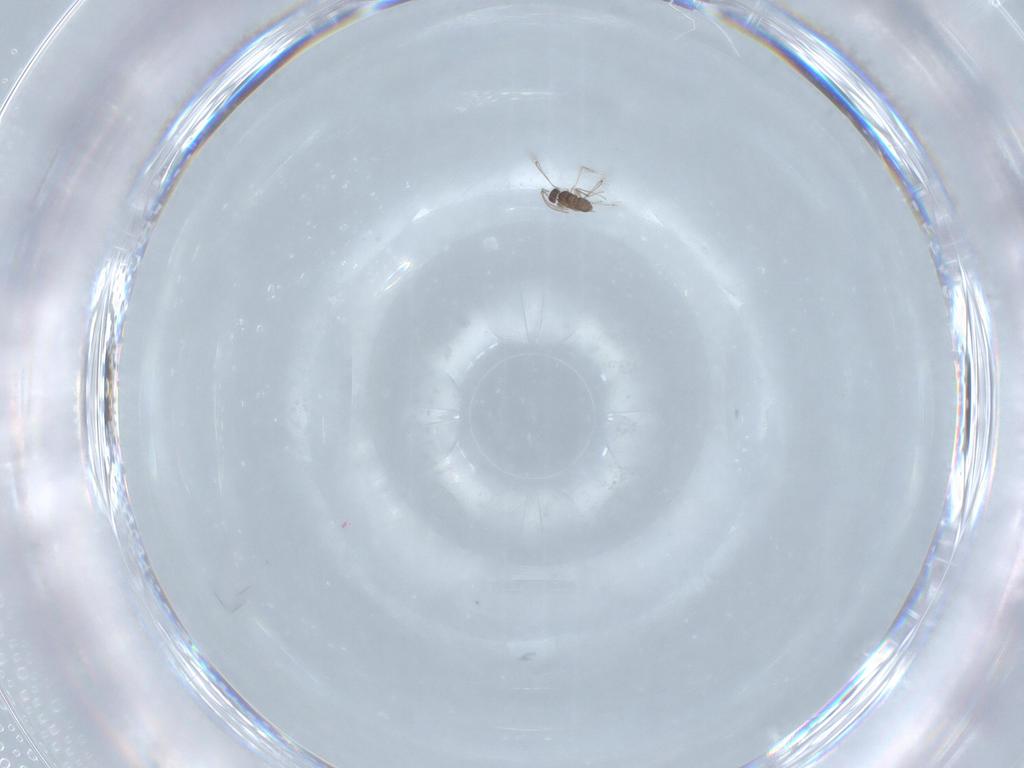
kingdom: Animalia
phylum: Arthropoda
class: Insecta
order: Hymenoptera
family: Mymaridae
